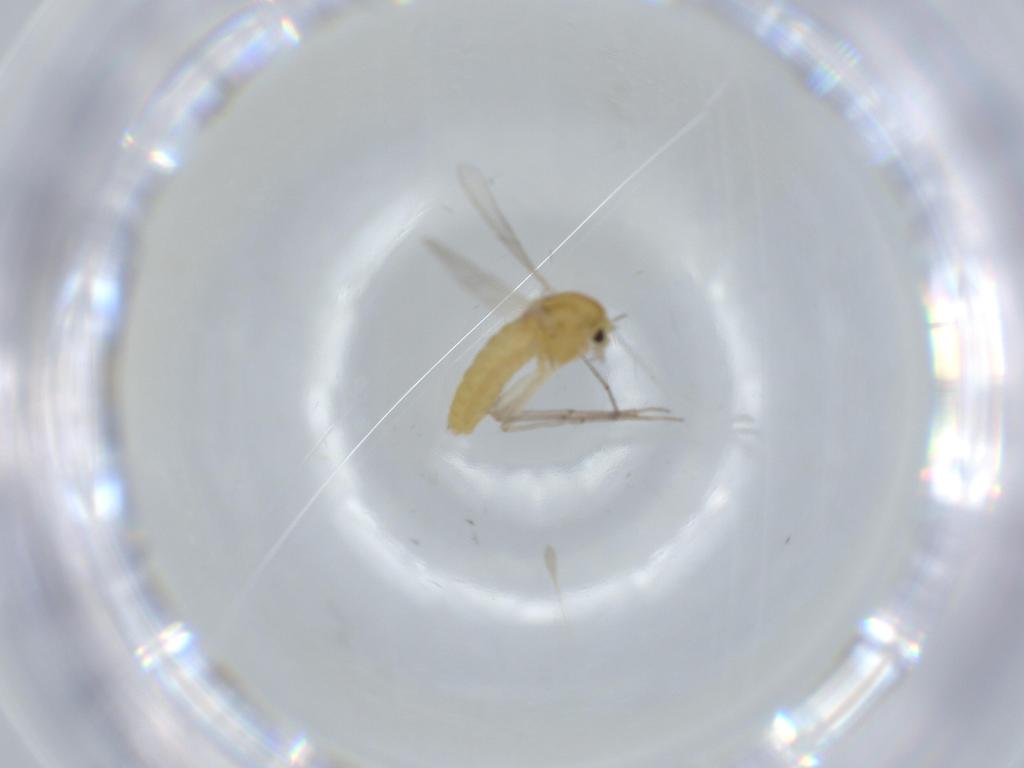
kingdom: Animalia
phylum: Arthropoda
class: Insecta
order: Diptera
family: Chironomidae
